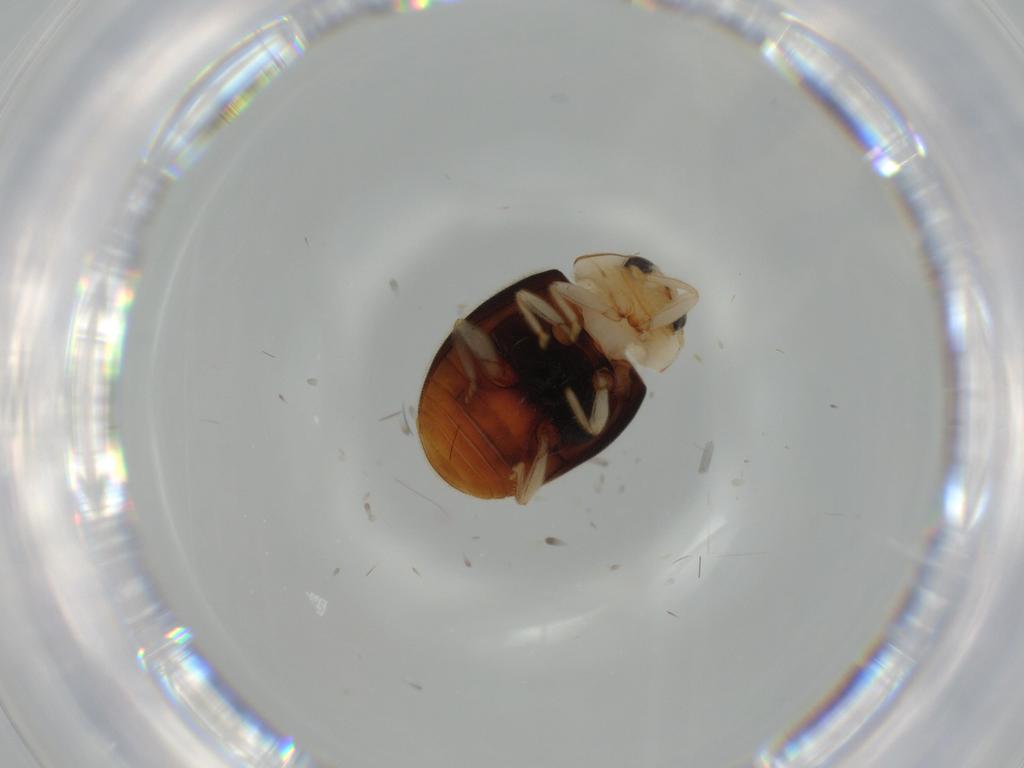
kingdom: Animalia
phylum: Arthropoda
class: Insecta
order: Coleoptera
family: Coccinellidae
